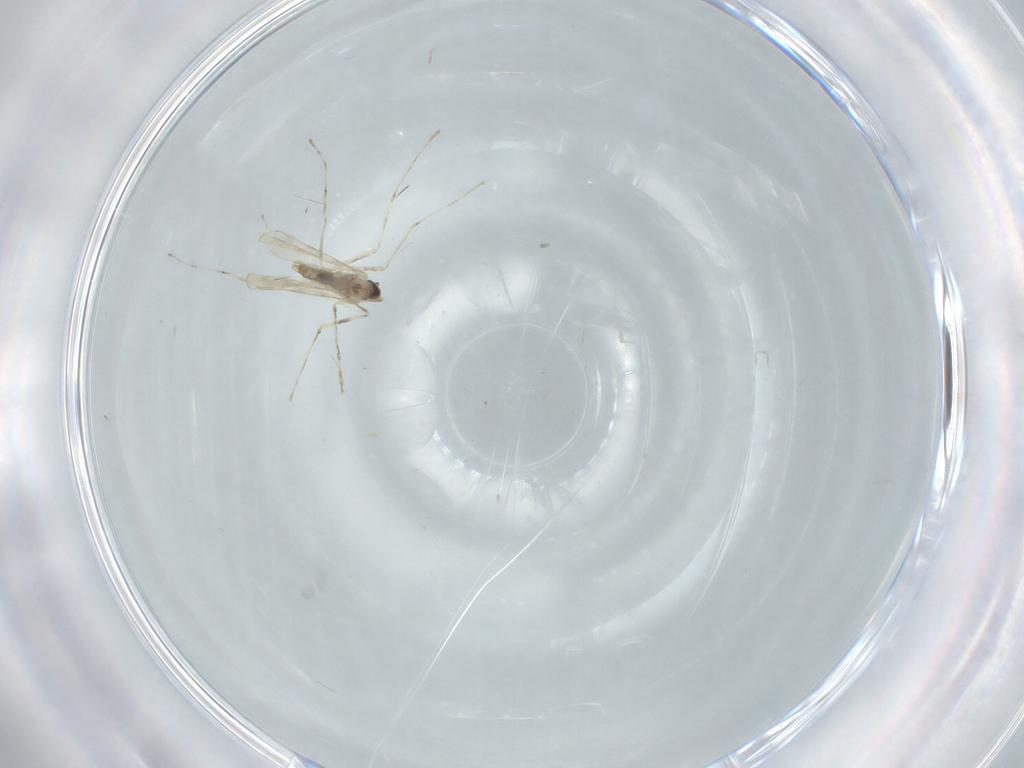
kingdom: Animalia
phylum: Arthropoda
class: Insecta
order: Diptera
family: Cecidomyiidae
